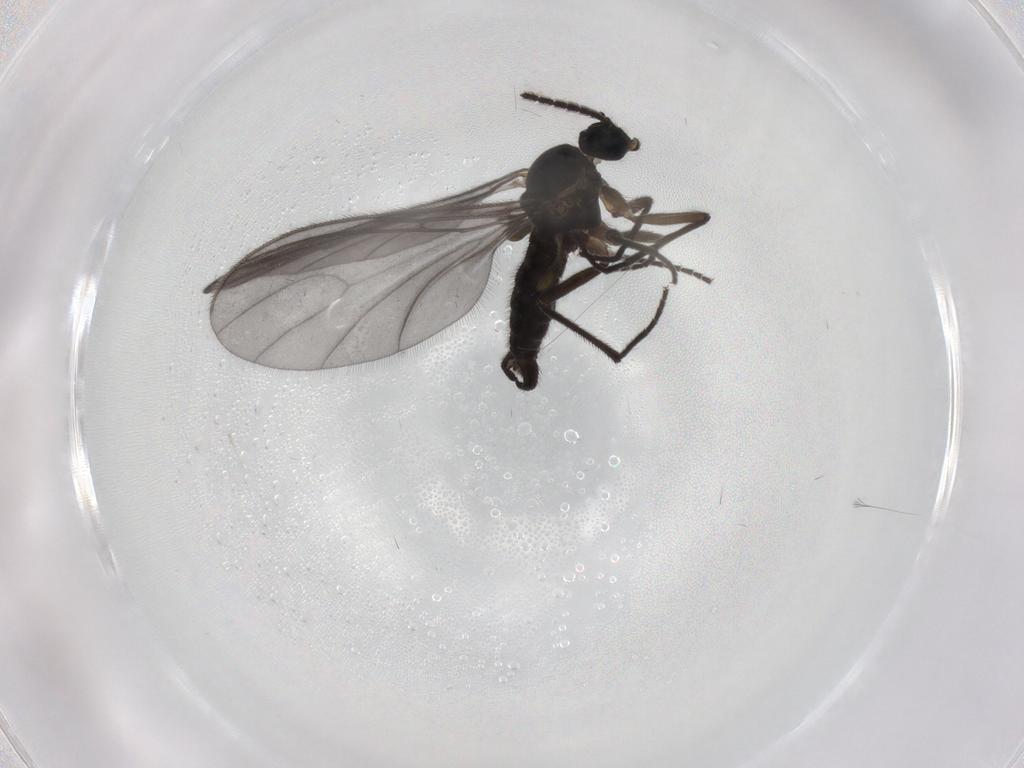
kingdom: Animalia
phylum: Arthropoda
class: Insecta
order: Diptera
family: Sciaridae
